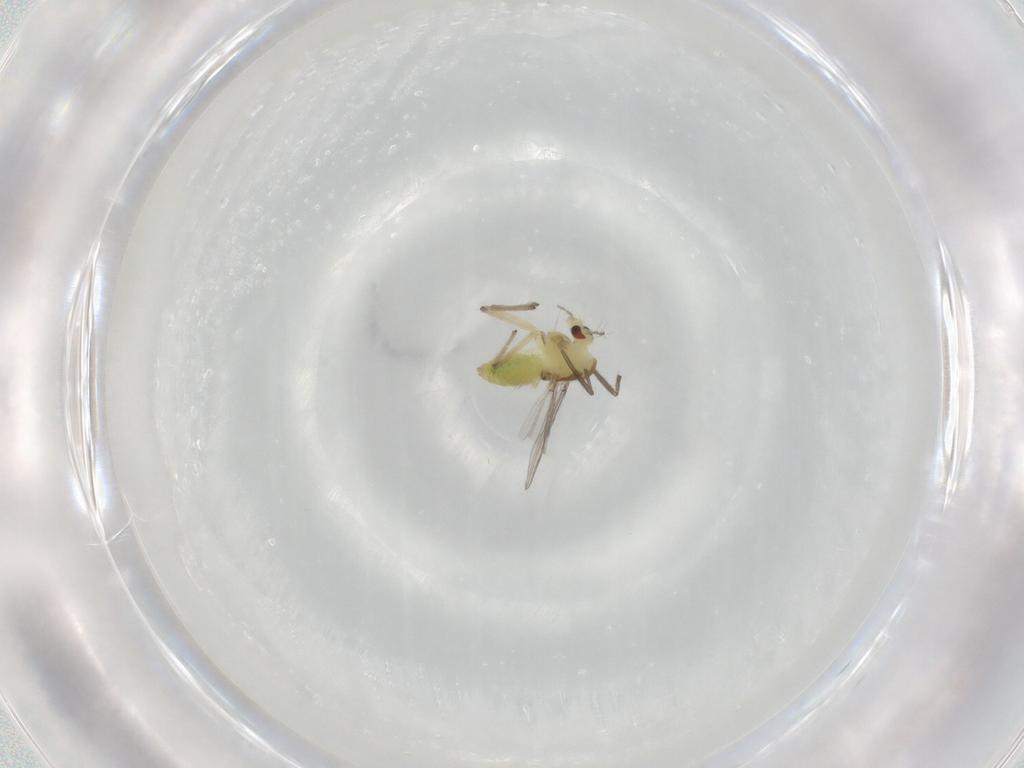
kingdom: Animalia
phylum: Arthropoda
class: Insecta
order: Diptera
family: Chironomidae
